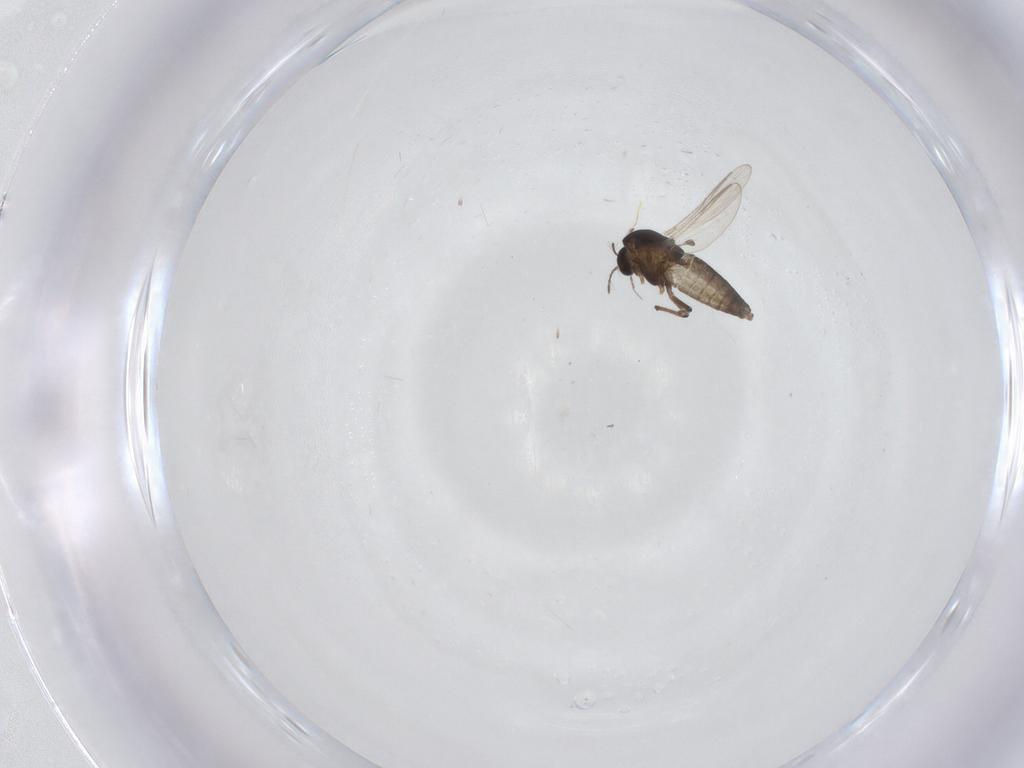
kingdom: Animalia
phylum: Arthropoda
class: Insecta
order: Diptera
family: Chironomidae
